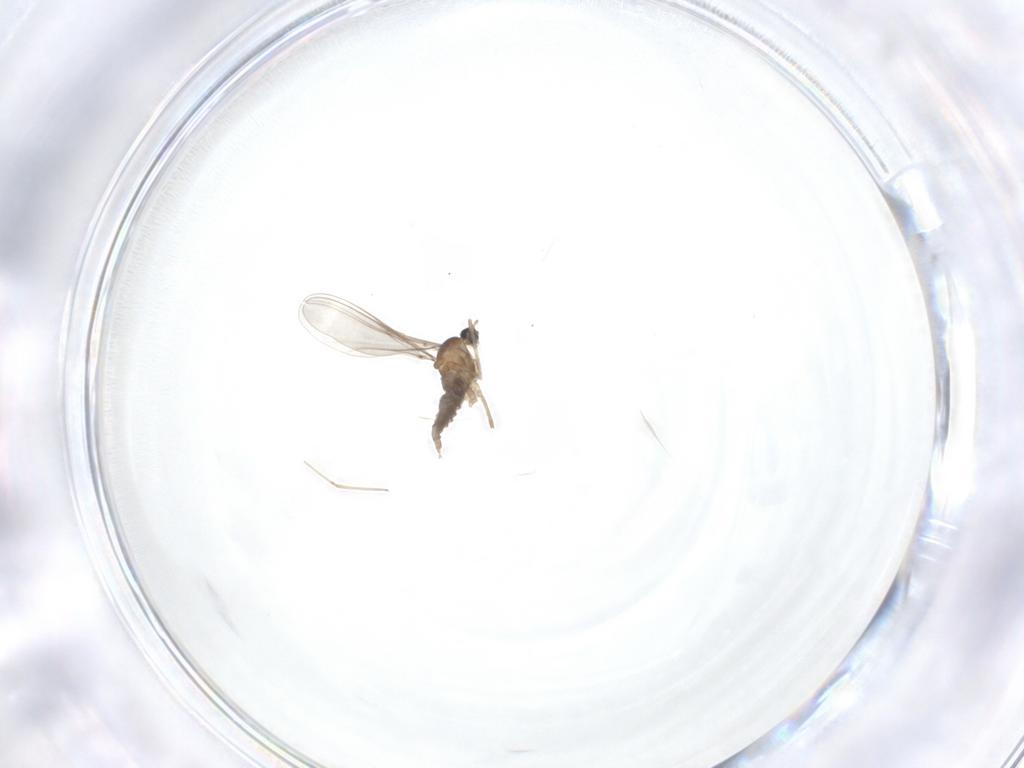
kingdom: Animalia
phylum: Arthropoda
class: Insecta
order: Diptera
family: Cecidomyiidae
